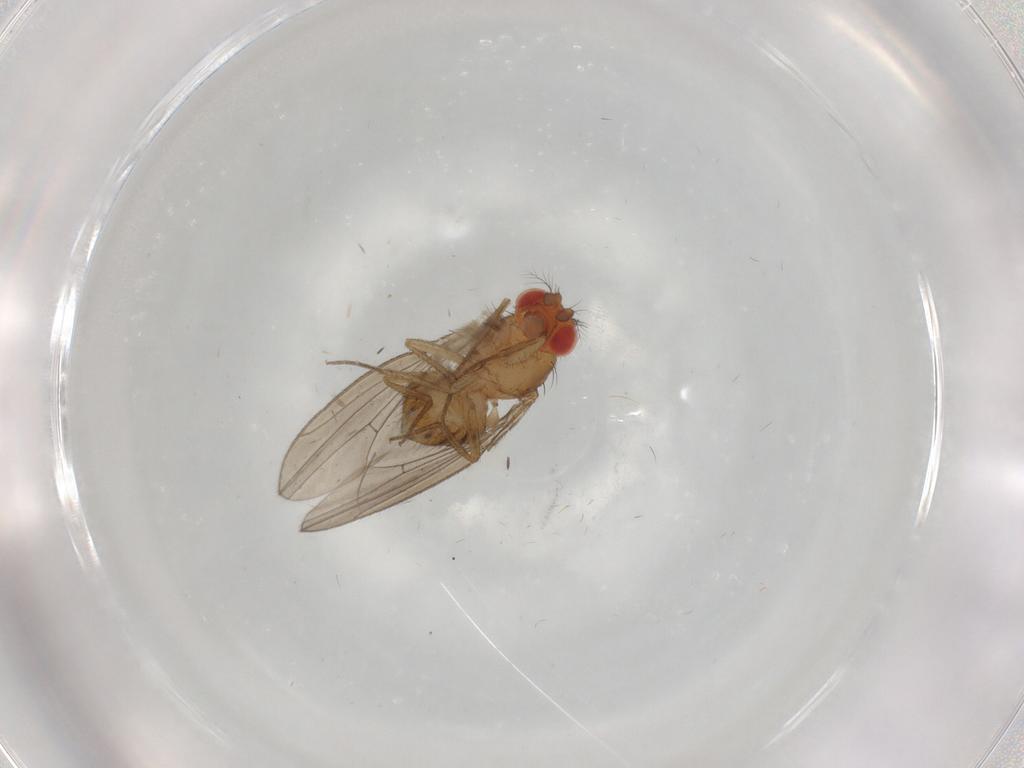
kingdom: Animalia
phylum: Arthropoda
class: Insecta
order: Diptera
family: Drosophilidae
